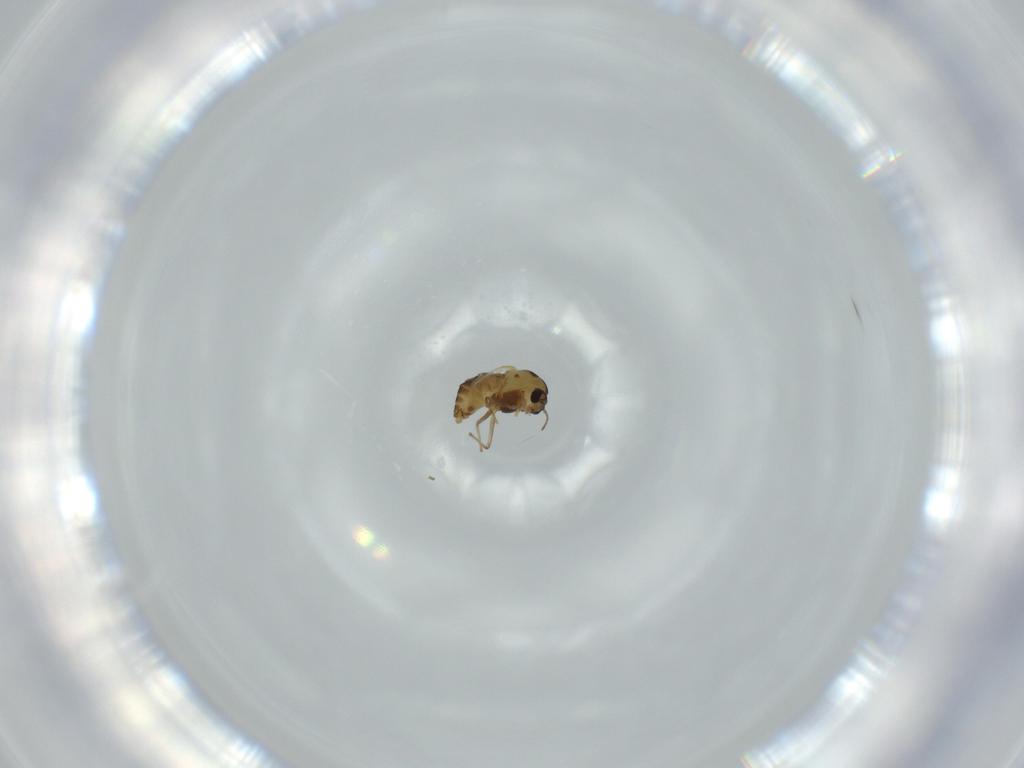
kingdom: Animalia
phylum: Arthropoda
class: Insecta
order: Diptera
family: Chironomidae
